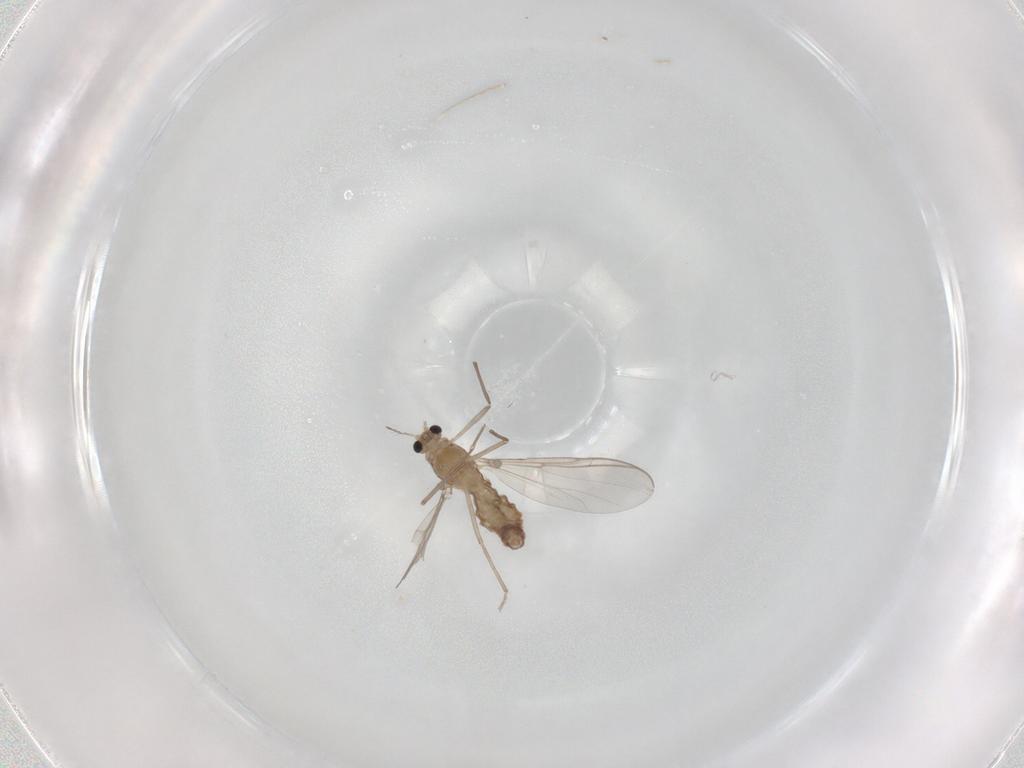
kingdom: Animalia
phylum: Arthropoda
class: Insecta
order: Diptera
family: Chironomidae
